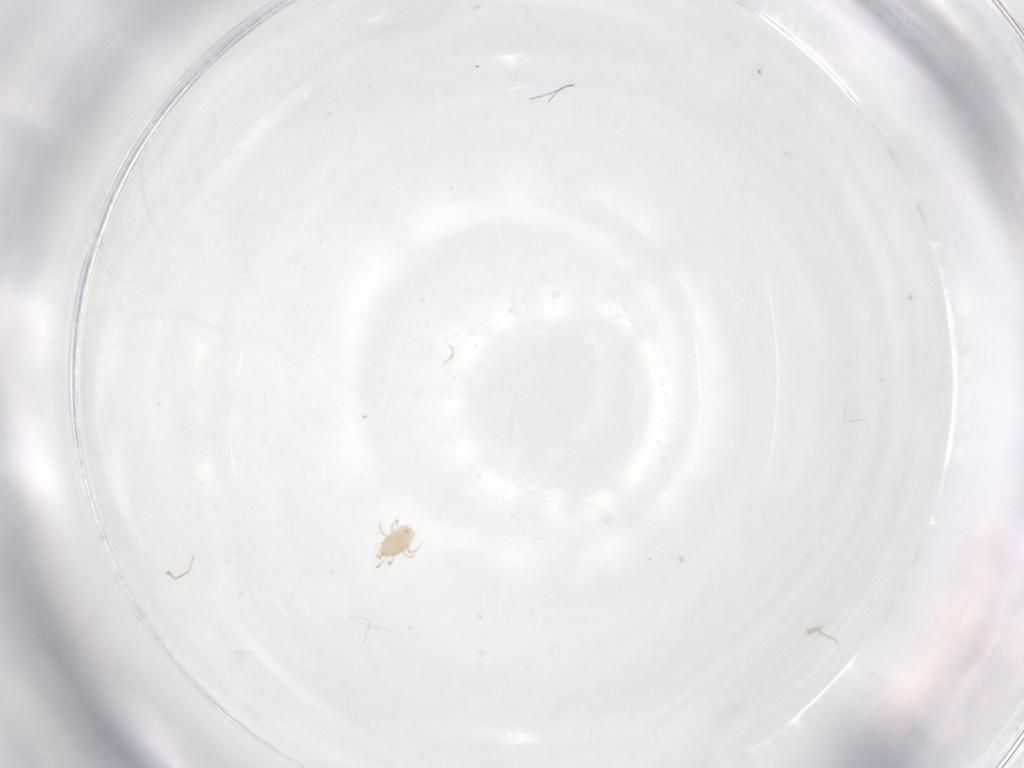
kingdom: Animalia
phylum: Arthropoda
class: Arachnida
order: Mesostigmata
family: Phytoseiidae
